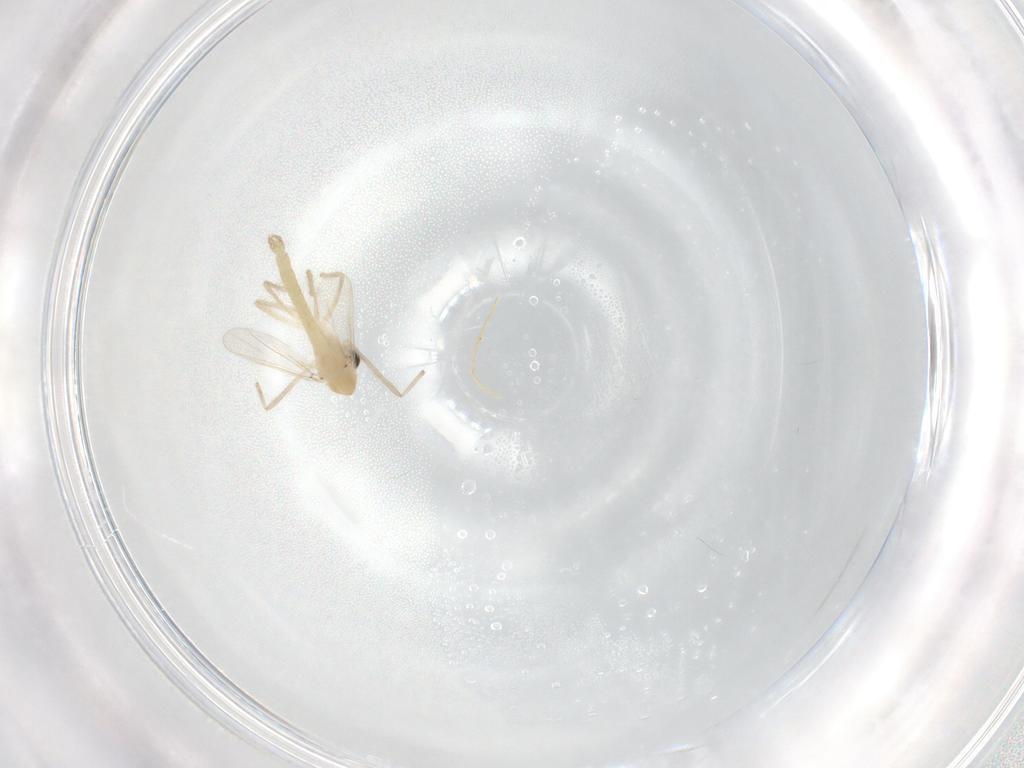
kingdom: Animalia
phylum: Arthropoda
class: Insecta
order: Diptera
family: Chironomidae
